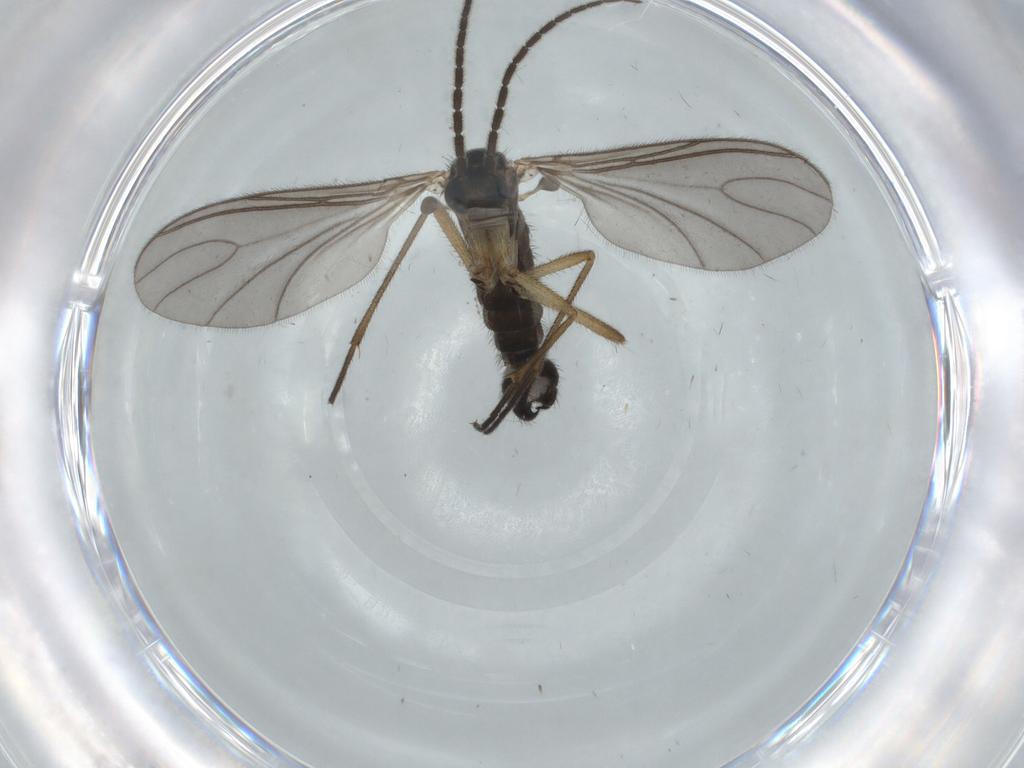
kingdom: Animalia
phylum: Arthropoda
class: Insecta
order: Diptera
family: Sciaridae
